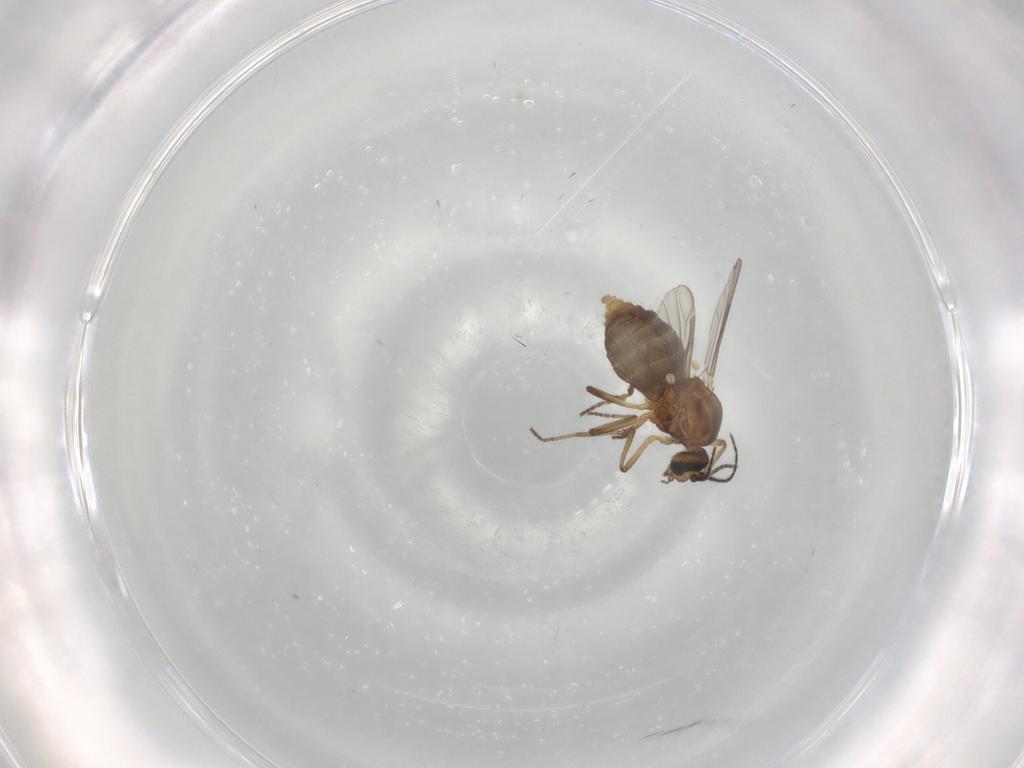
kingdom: Animalia
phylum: Arthropoda
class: Insecta
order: Diptera
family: Ceratopogonidae
